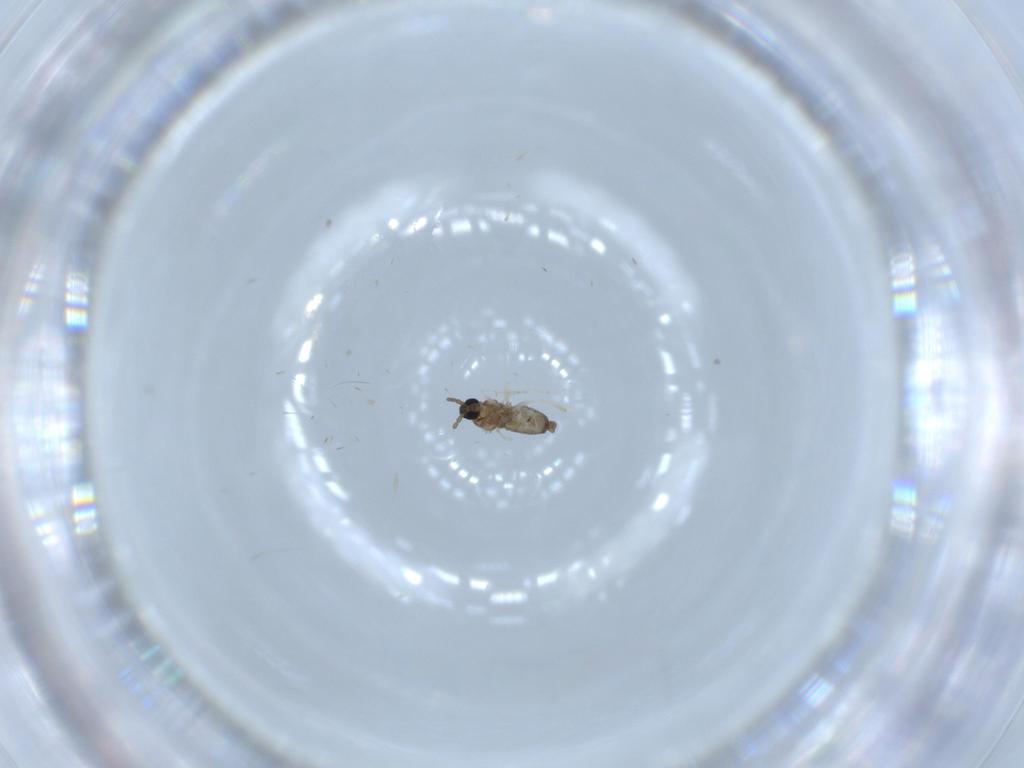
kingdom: Animalia
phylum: Arthropoda
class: Insecta
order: Diptera
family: Cecidomyiidae
